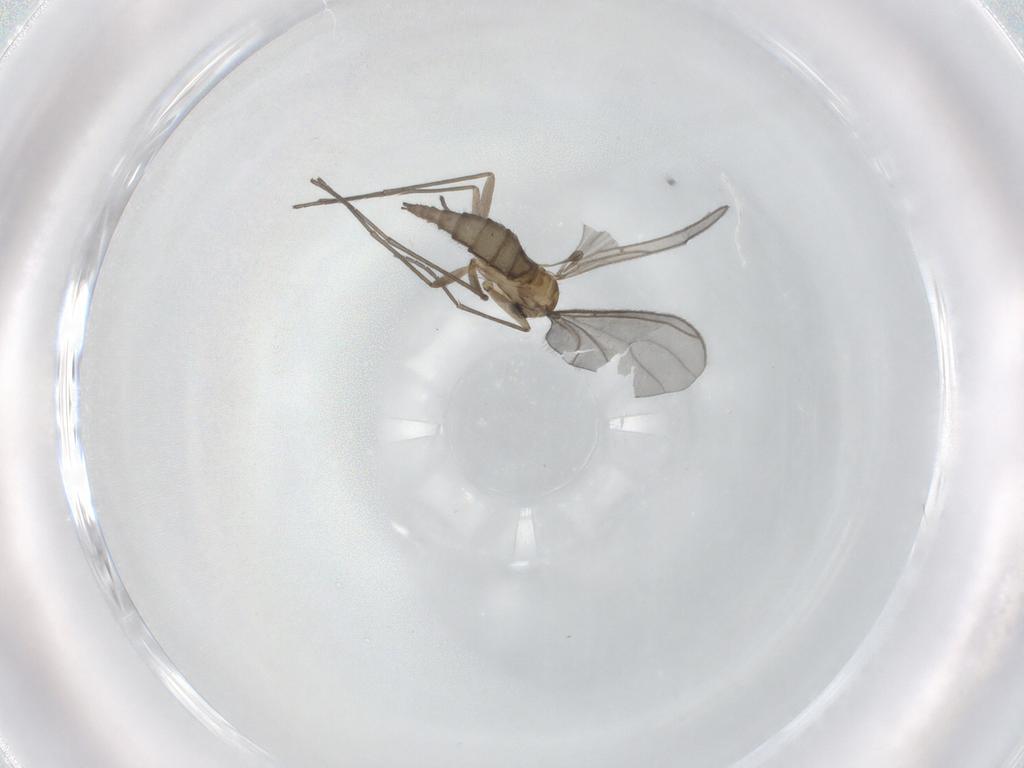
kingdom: Animalia
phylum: Arthropoda
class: Insecta
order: Diptera
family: Sciaridae
